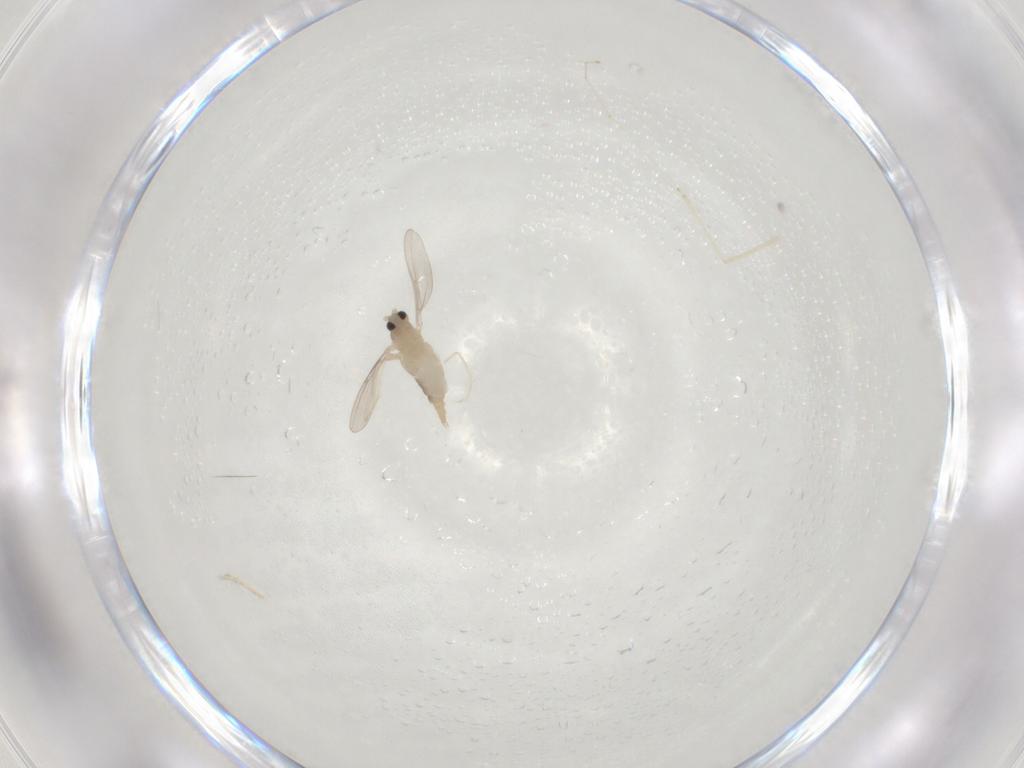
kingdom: Animalia
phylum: Arthropoda
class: Insecta
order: Diptera
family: Cecidomyiidae
